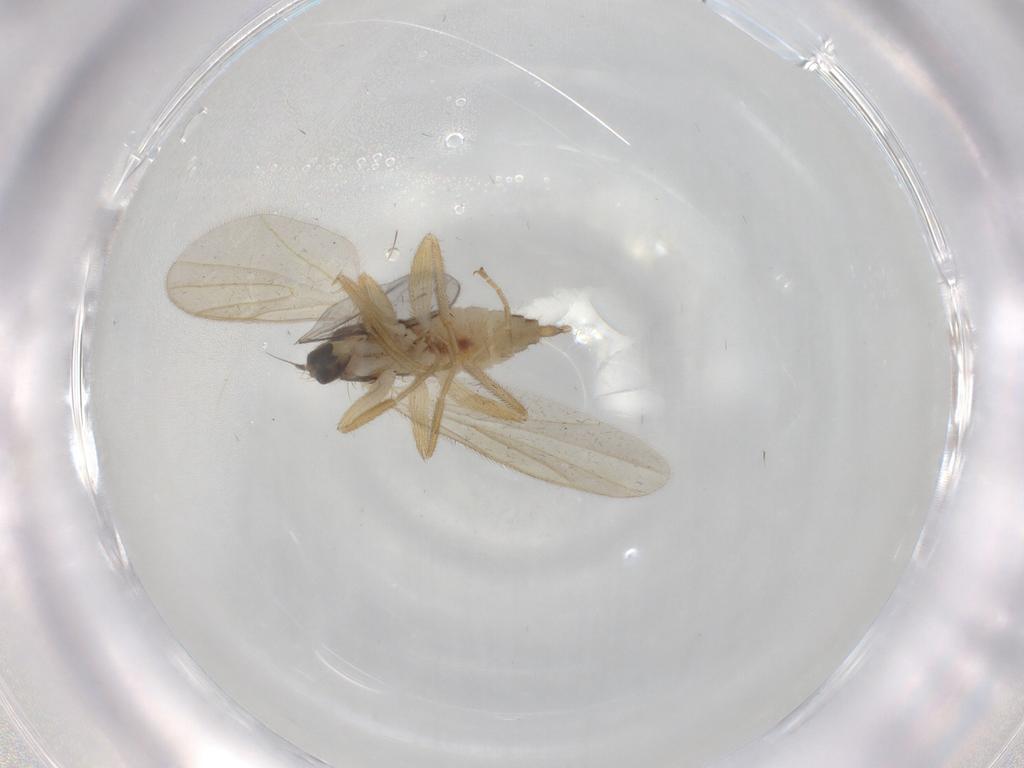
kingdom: Animalia
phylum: Arthropoda
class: Insecta
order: Diptera
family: Hybotidae
